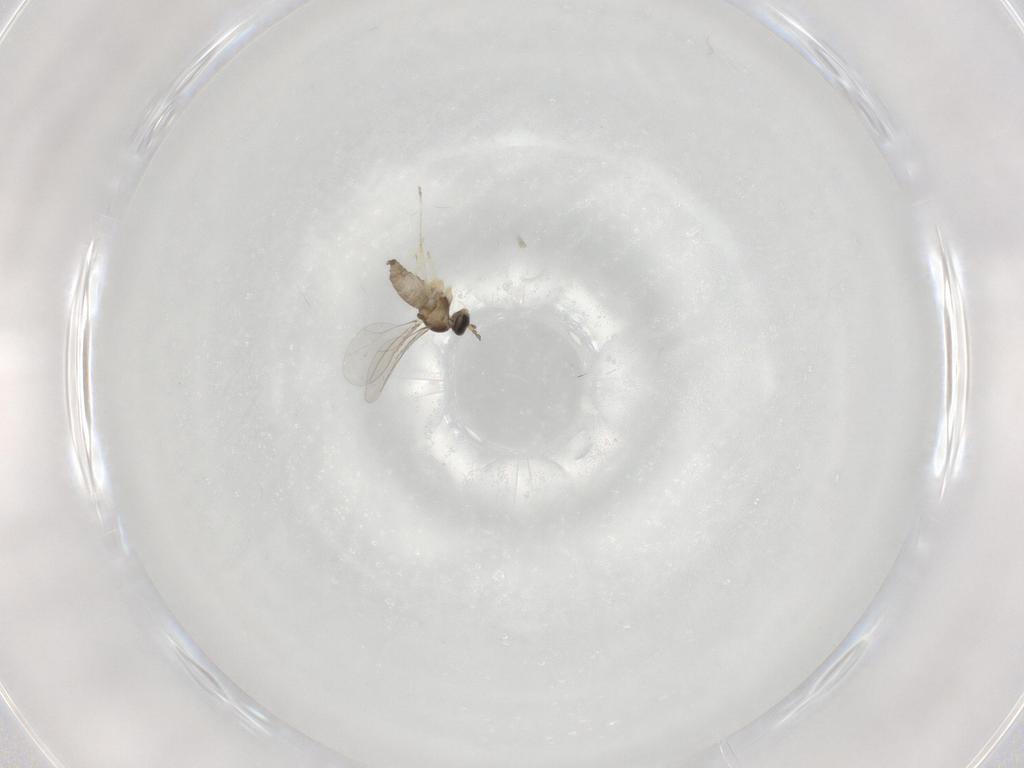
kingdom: Animalia
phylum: Arthropoda
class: Insecta
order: Diptera
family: Cecidomyiidae
